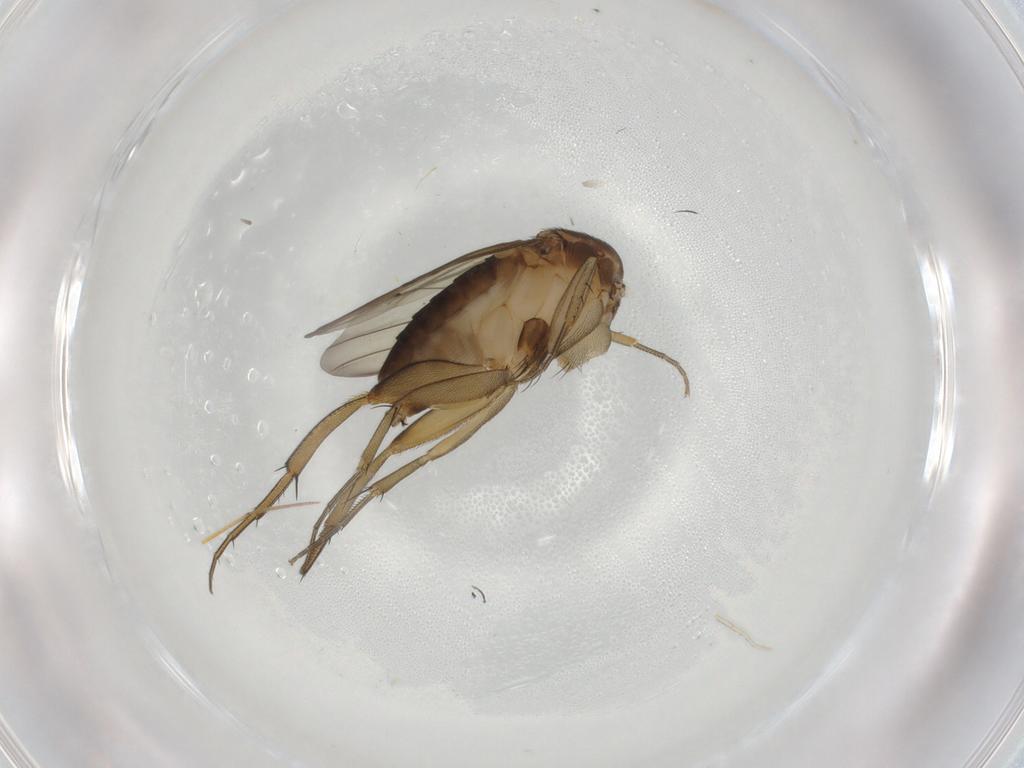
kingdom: Animalia
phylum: Arthropoda
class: Insecta
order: Diptera
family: Phoridae
